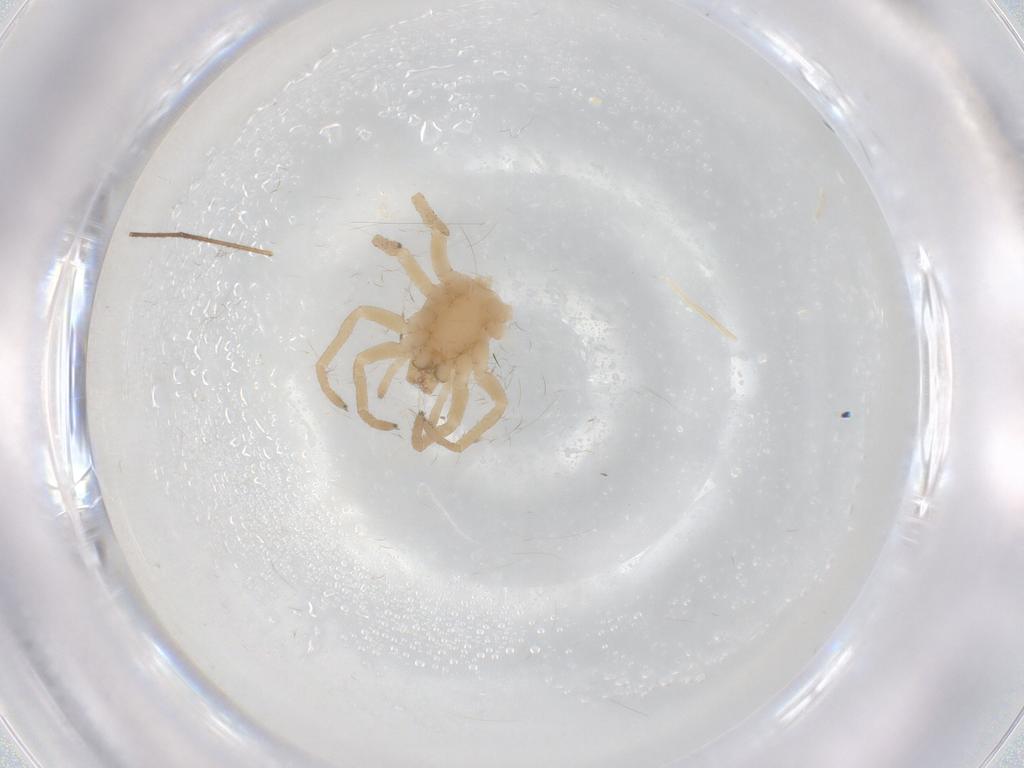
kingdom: Animalia
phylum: Arthropoda
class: Arachnida
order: Araneae
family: Clubionidae
